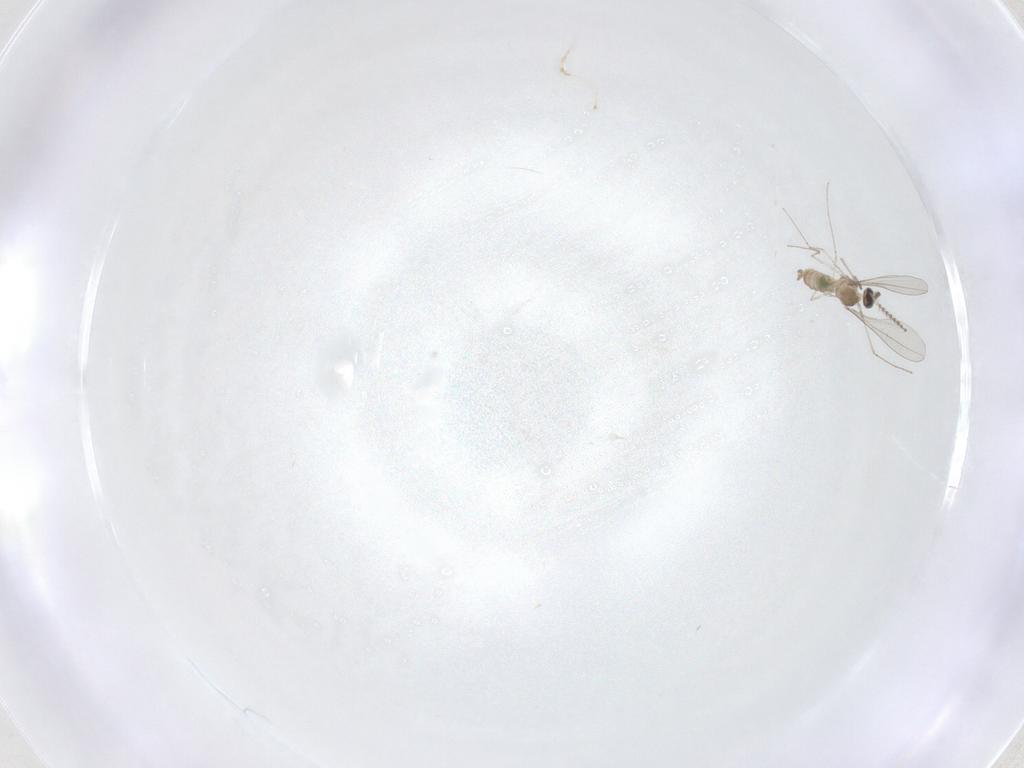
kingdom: Animalia
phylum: Arthropoda
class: Insecta
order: Diptera
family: Cecidomyiidae
